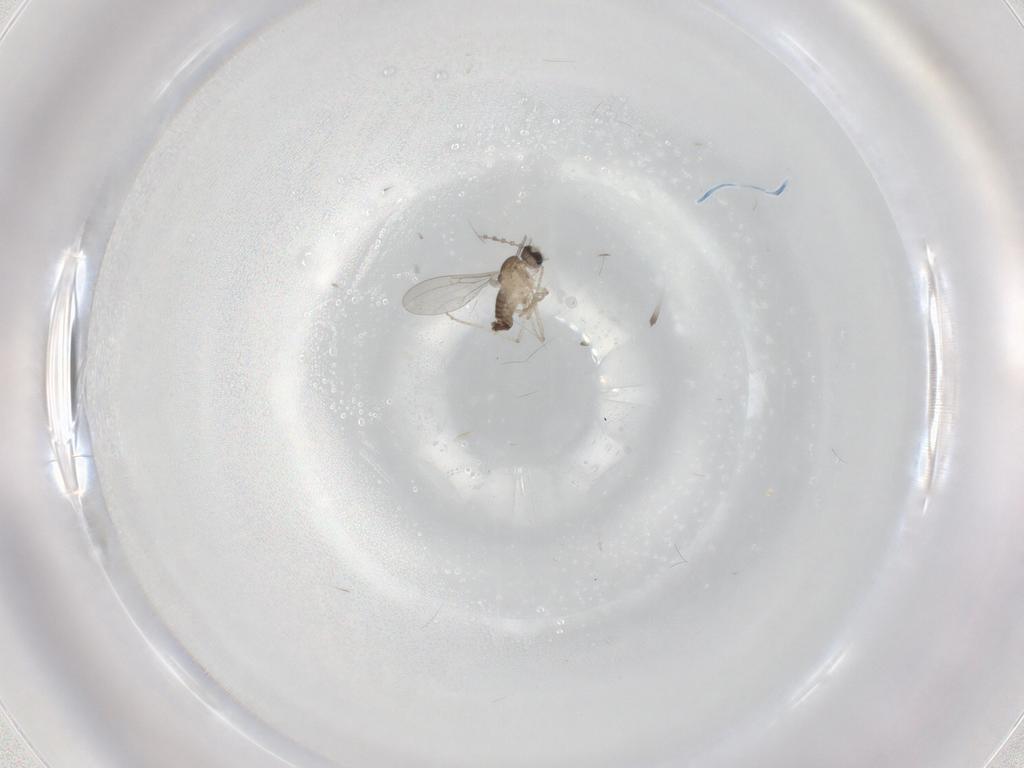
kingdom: Animalia
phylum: Arthropoda
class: Insecta
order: Diptera
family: Cecidomyiidae
